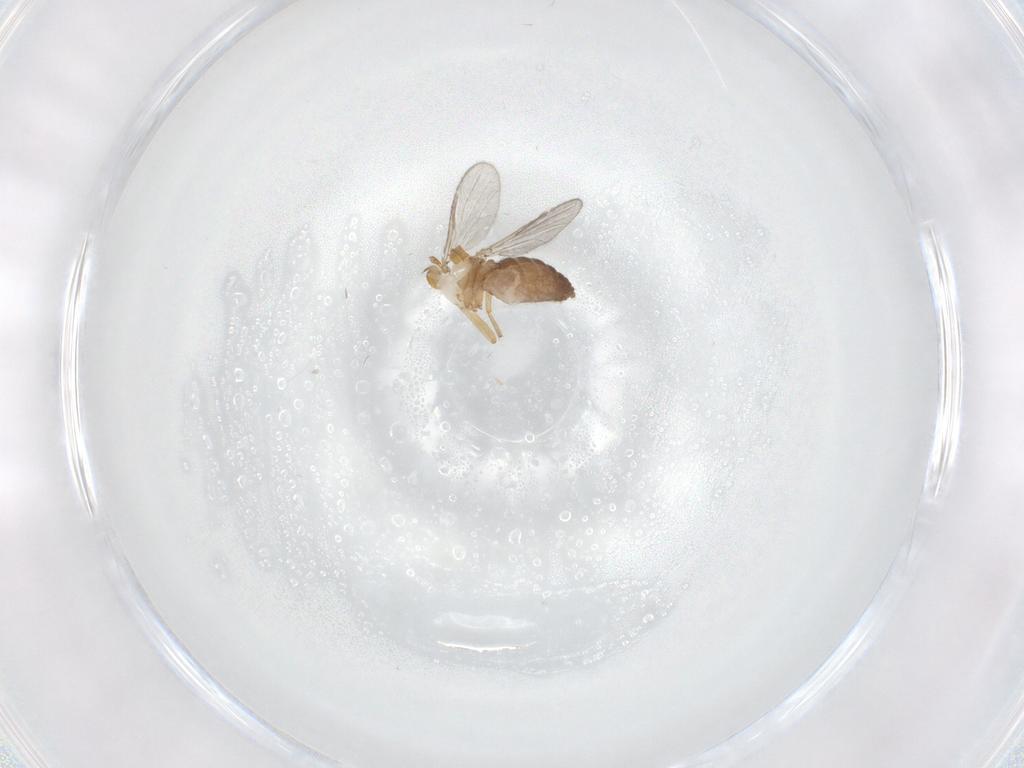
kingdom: Animalia
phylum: Arthropoda
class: Insecta
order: Diptera
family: Ceratopogonidae
